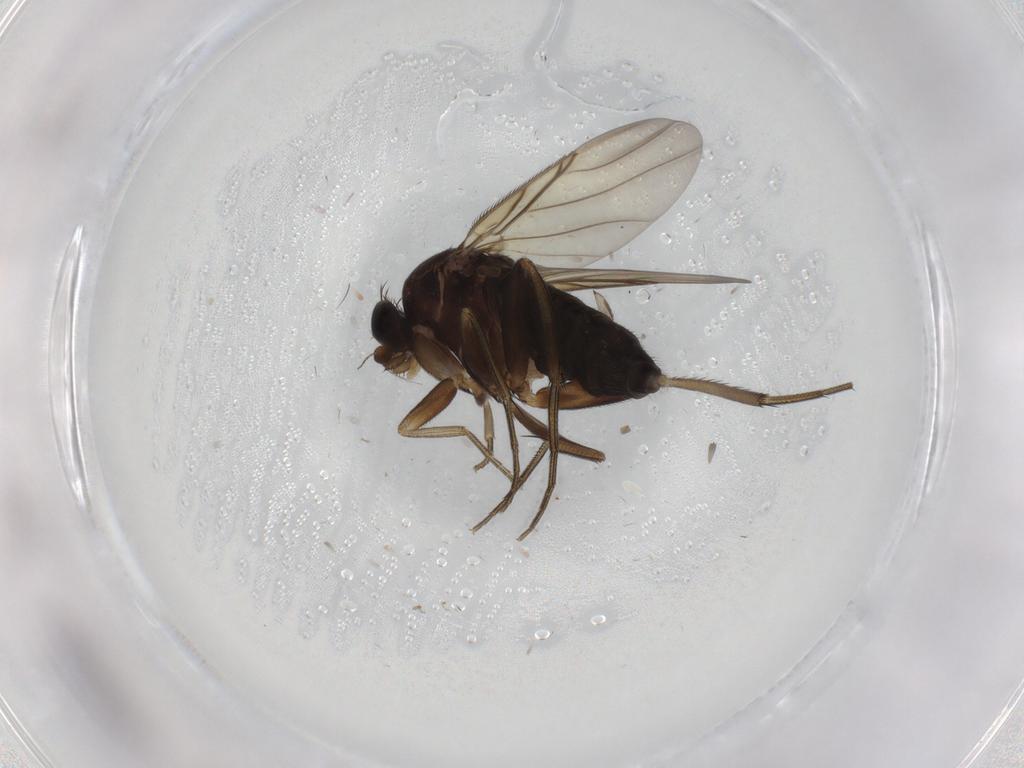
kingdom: Animalia
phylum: Arthropoda
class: Insecta
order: Diptera
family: Phoridae
